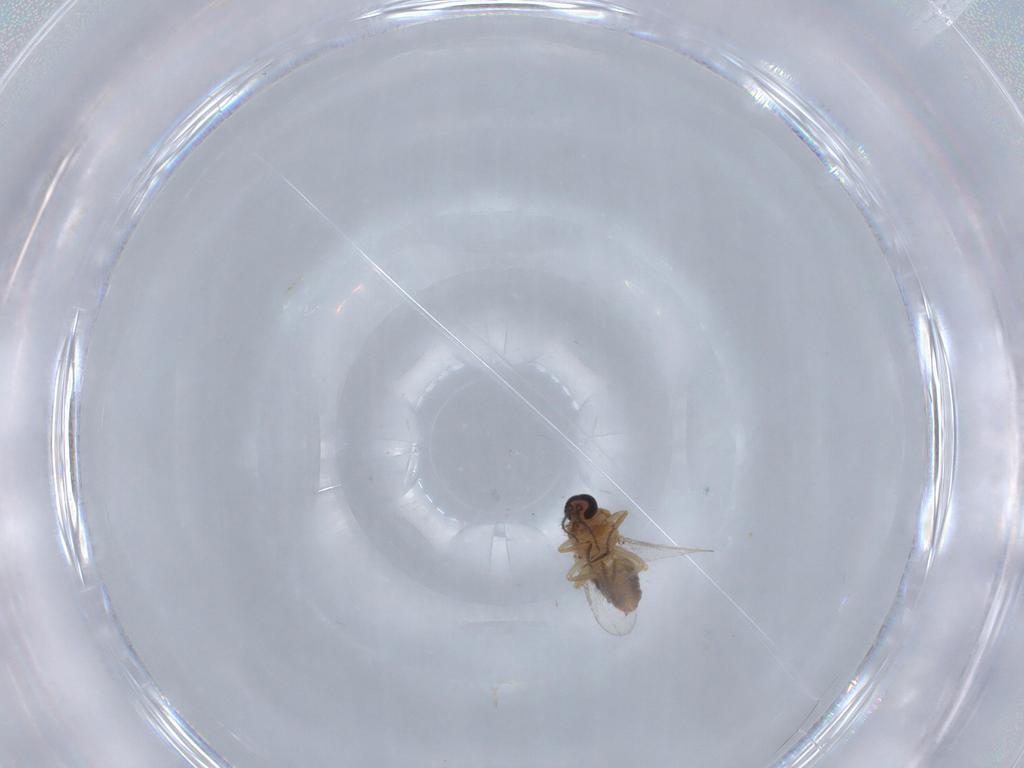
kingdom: Animalia
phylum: Arthropoda
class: Insecta
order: Diptera
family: Ceratopogonidae
